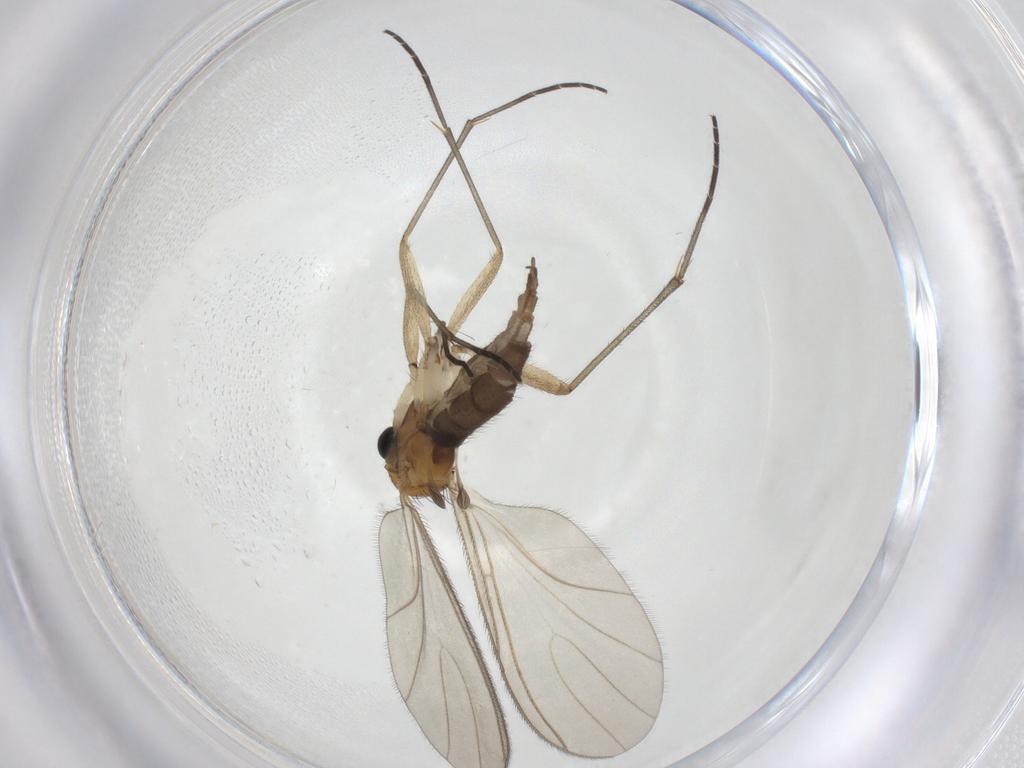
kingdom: Animalia
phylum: Arthropoda
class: Insecta
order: Diptera
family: Sciaridae
